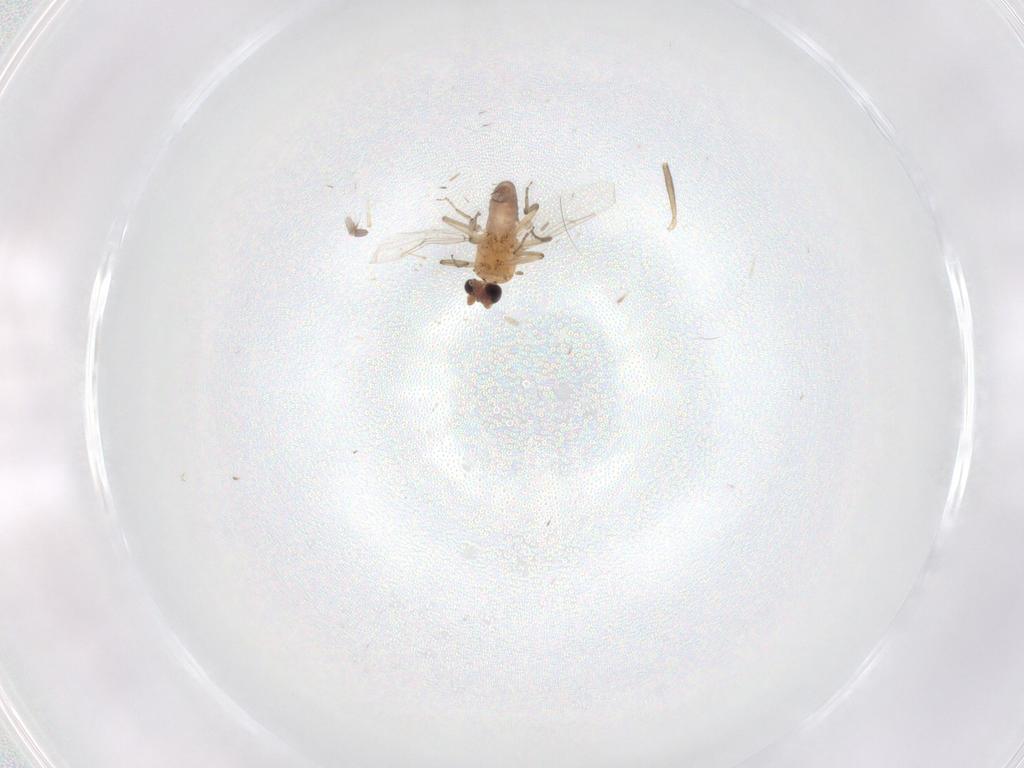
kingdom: Animalia
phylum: Arthropoda
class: Insecta
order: Diptera
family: Ceratopogonidae
